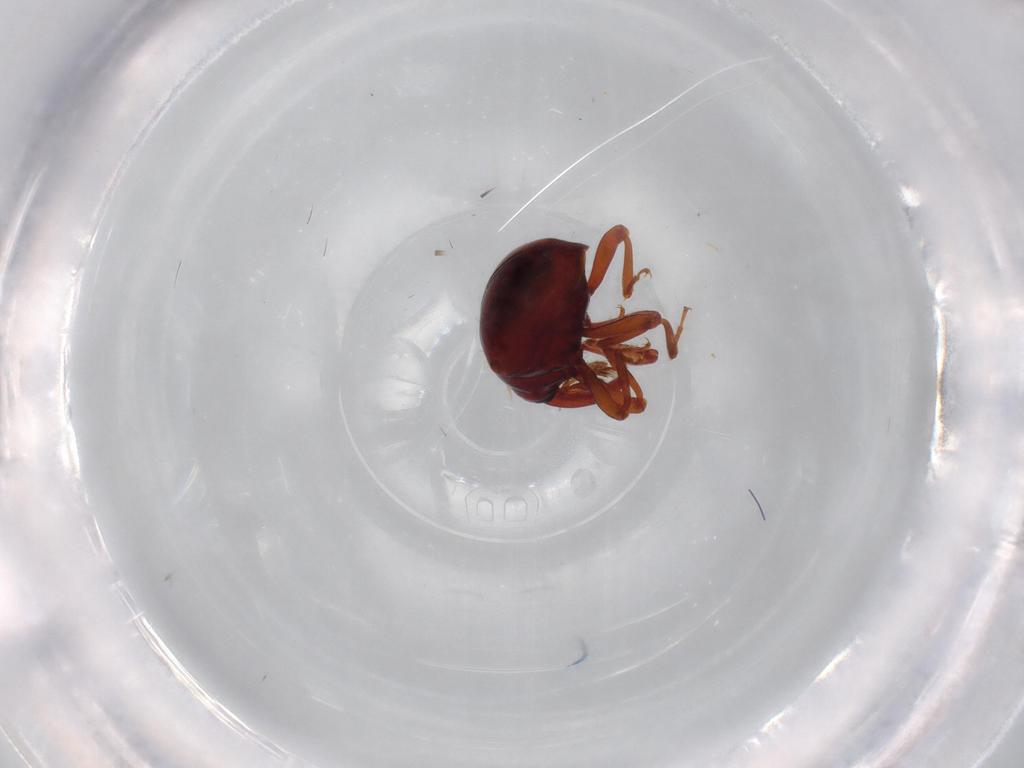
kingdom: Animalia
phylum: Arthropoda
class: Insecta
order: Coleoptera
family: Curculionidae
